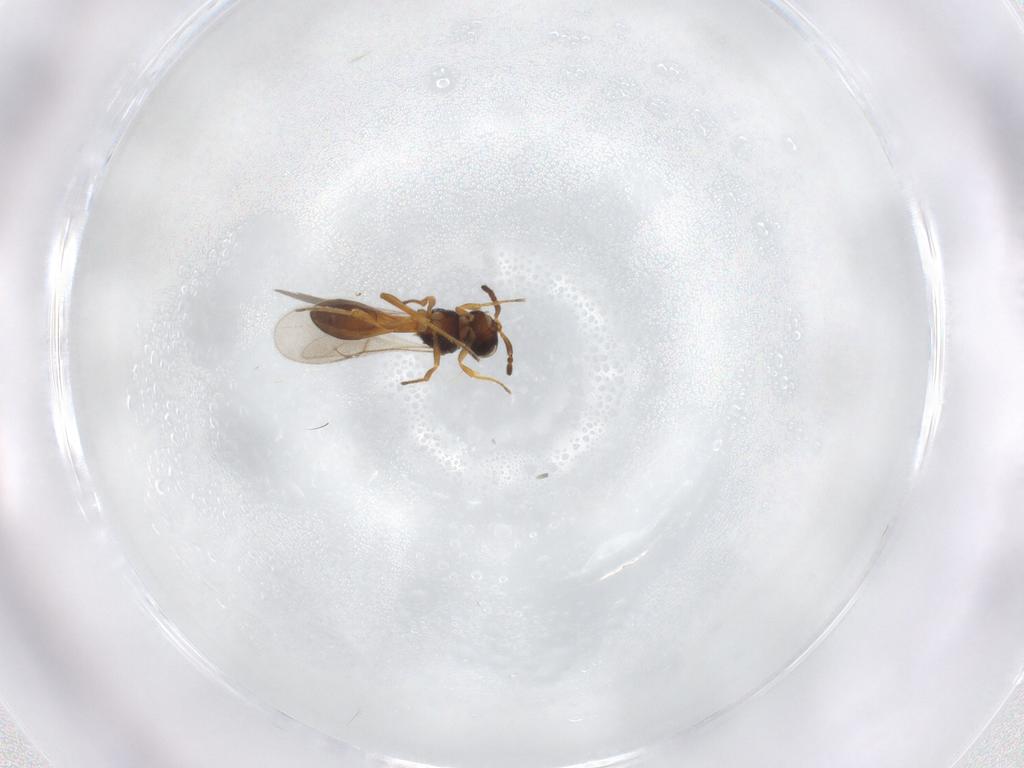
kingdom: Animalia
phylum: Arthropoda
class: Insecta
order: Hymenoptera
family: Scelionidae
